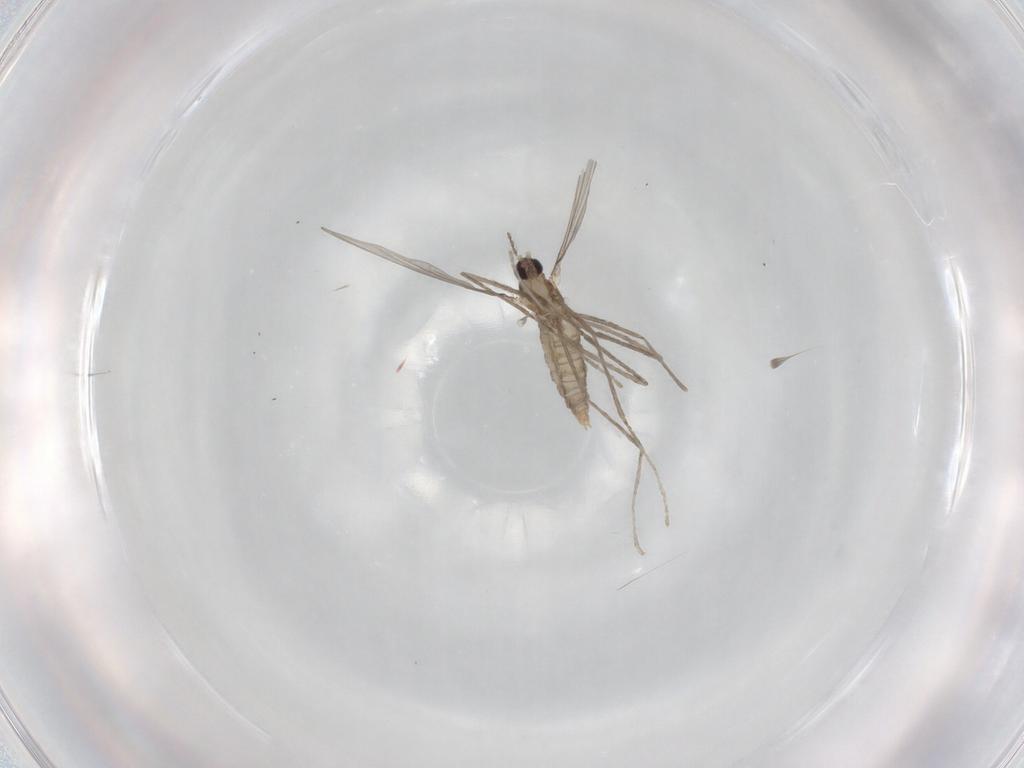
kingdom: Animalia
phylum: Arthropoda
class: Insecta
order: Diptera
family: Cecidomyiidae
